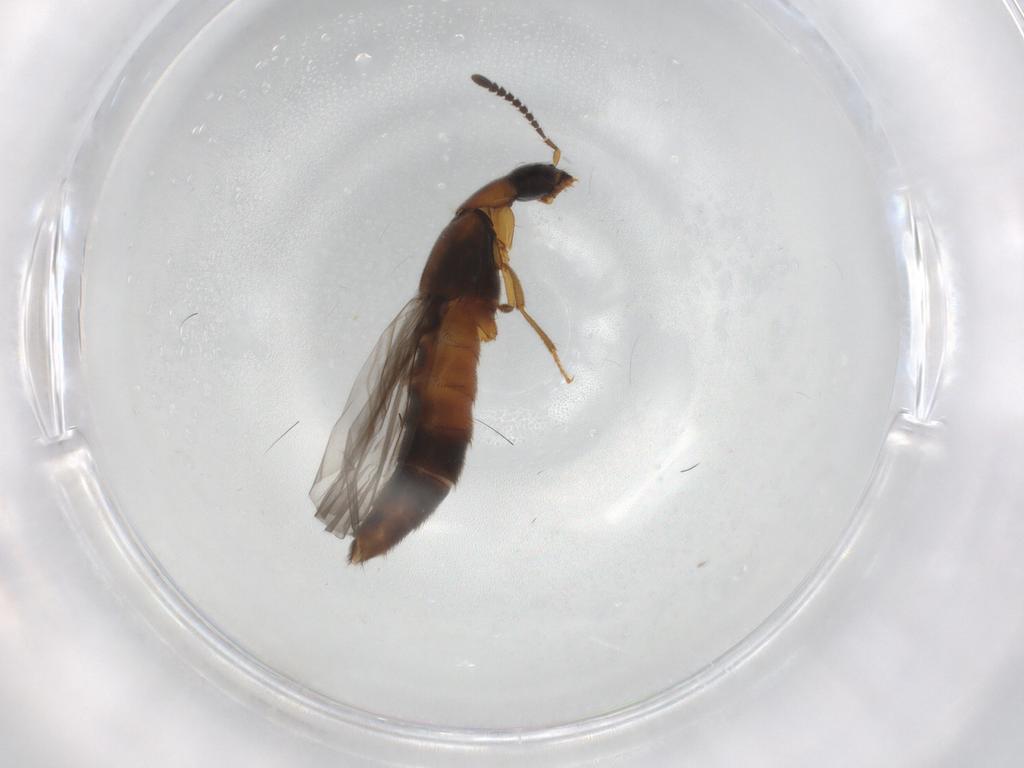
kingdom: Animalia
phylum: Arthropoda
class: Insecta
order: Coleoptera
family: Staphylinidae
